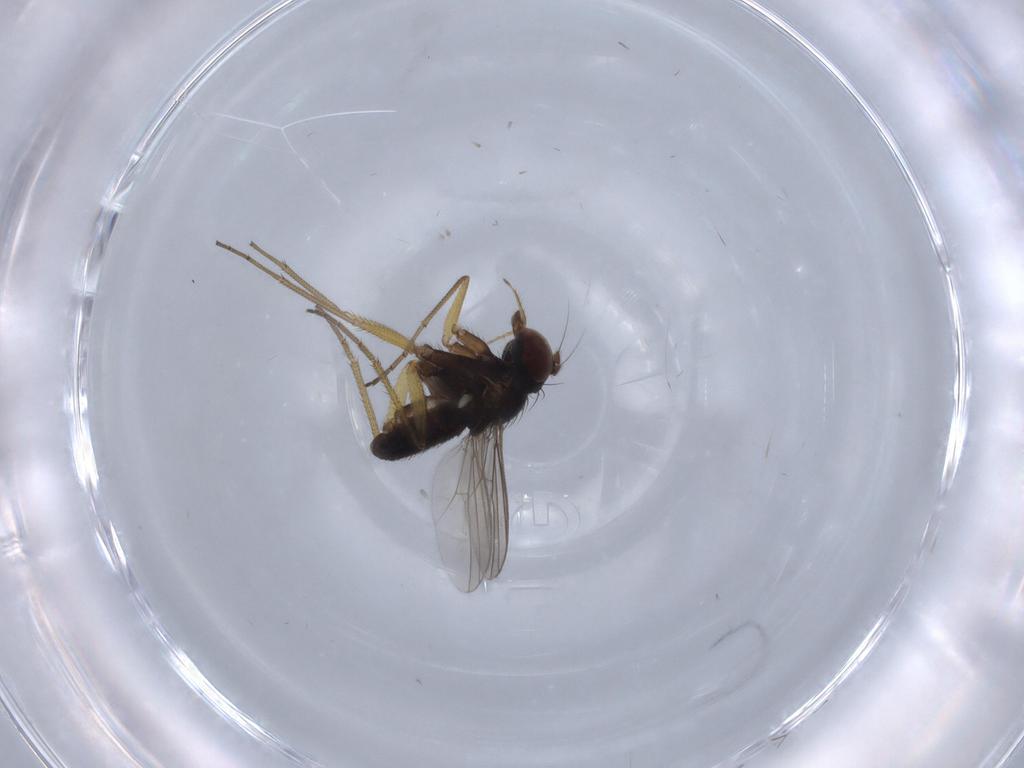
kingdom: Animalia
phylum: Arthropoda
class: Insecta
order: Diptera
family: Dolichopodidae
